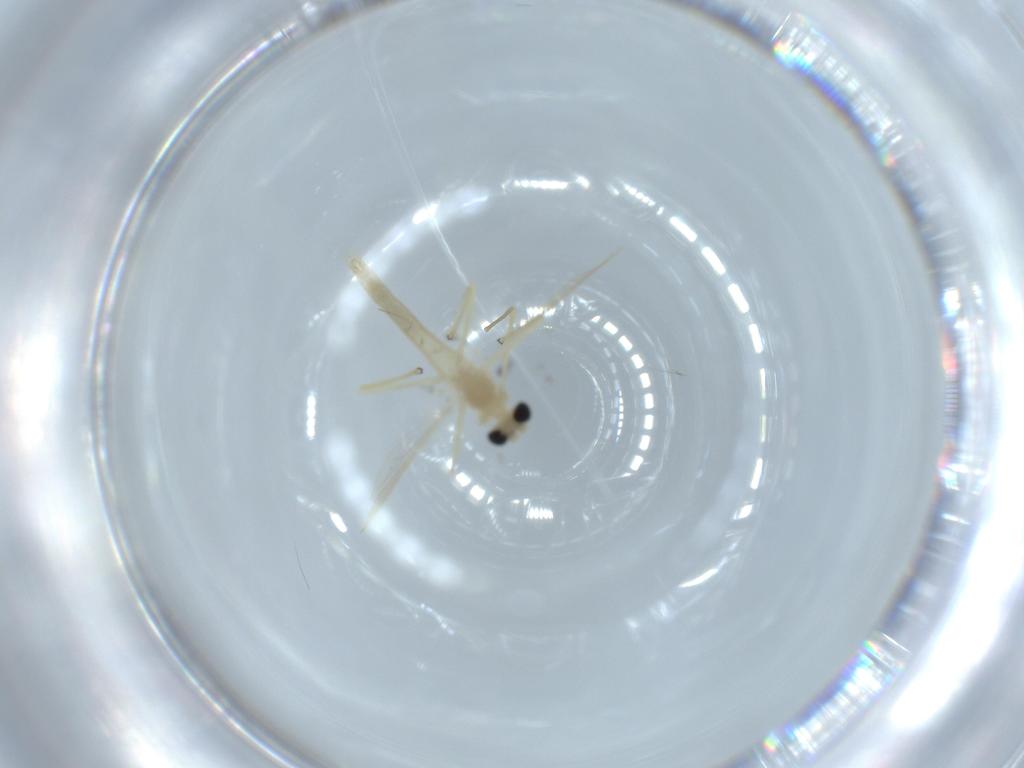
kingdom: Animalia
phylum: Arthropoda
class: Insecta
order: Diptera
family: Chironomidae
